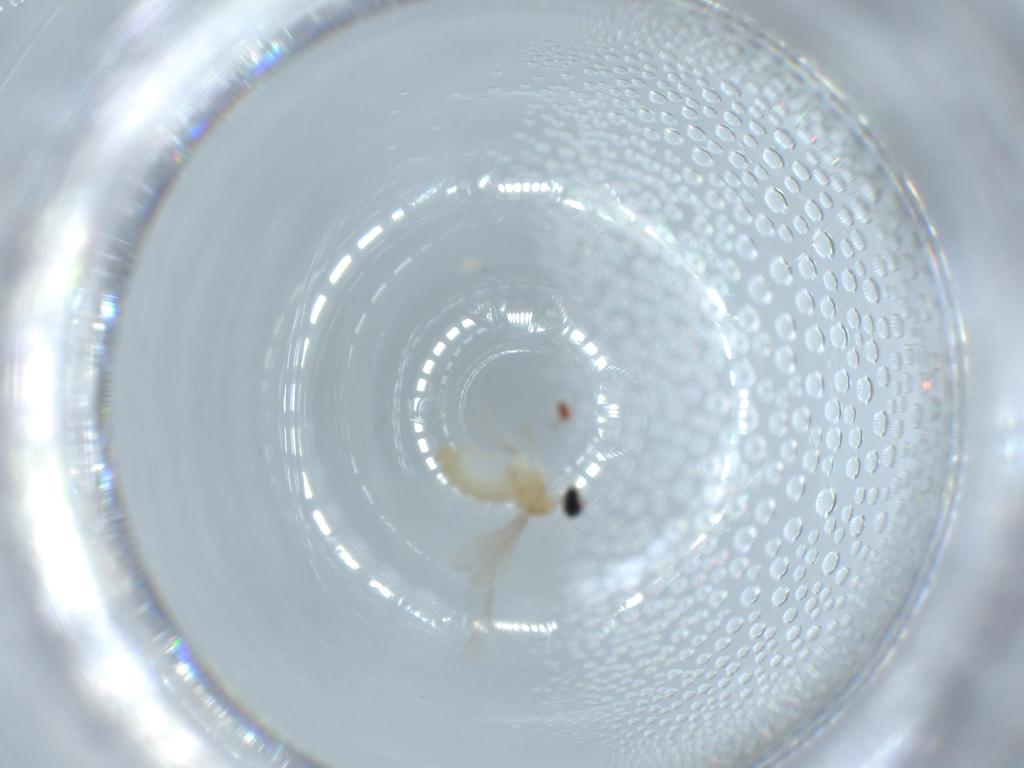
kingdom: Animalia
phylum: Arthropoda
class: Insecta
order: Diptera
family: Cecidomyiidae
